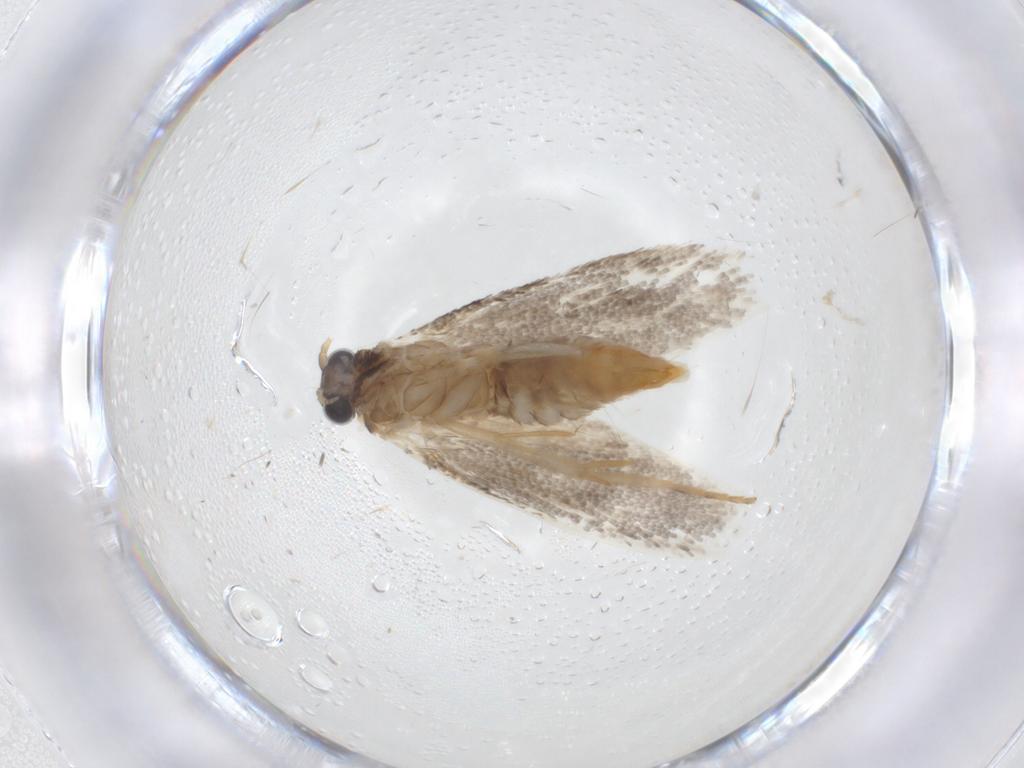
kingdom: Animalia
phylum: Arthropoda
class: Insecta
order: Lepidoptera
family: Tineidae
